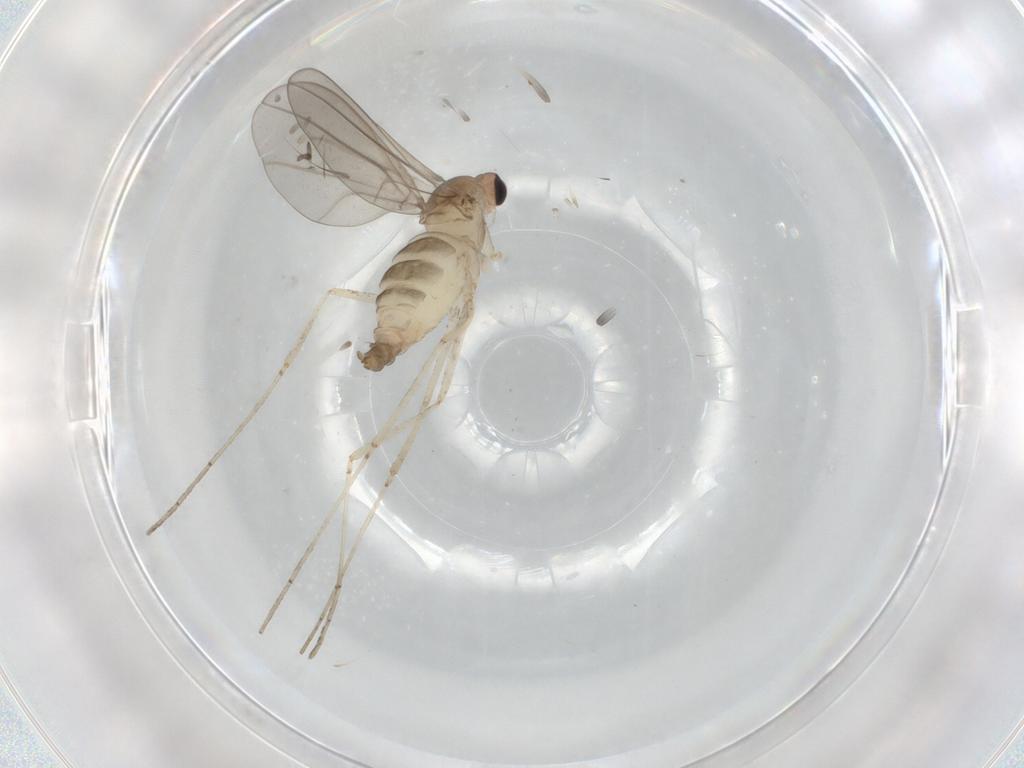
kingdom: Animalia
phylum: Arthropoda
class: Insecta
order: Diptera
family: Cecidomyiidae
